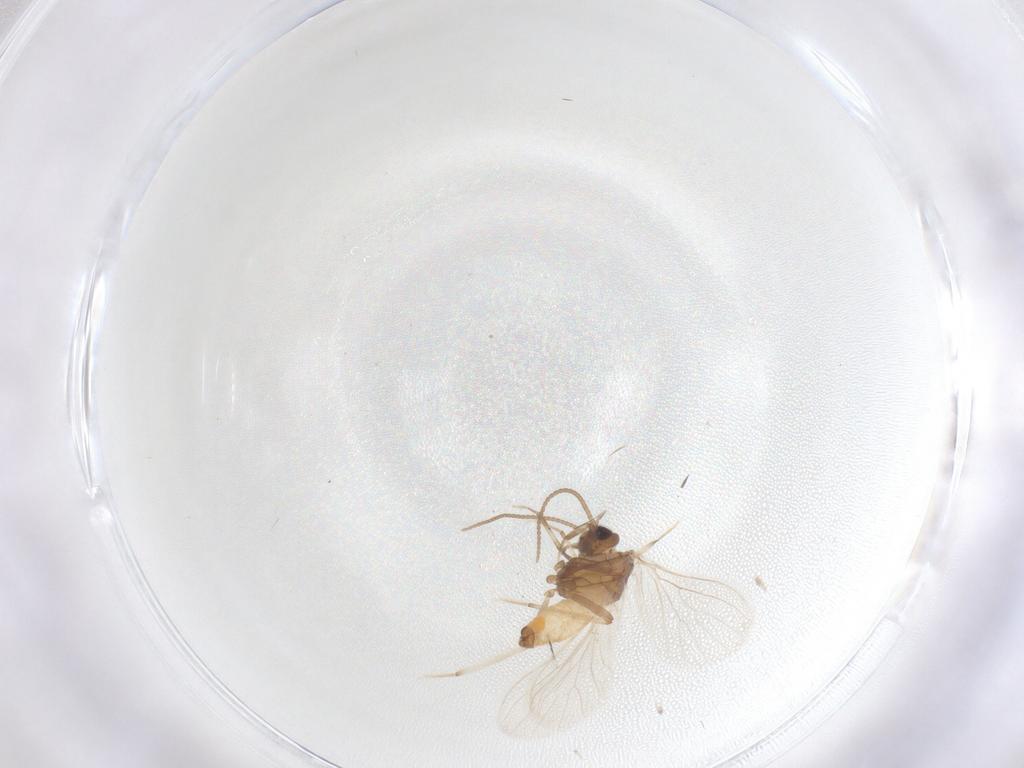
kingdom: Animalia
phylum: Arthropoda
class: Insecta
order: Neuroptera
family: Coniopterygidae
